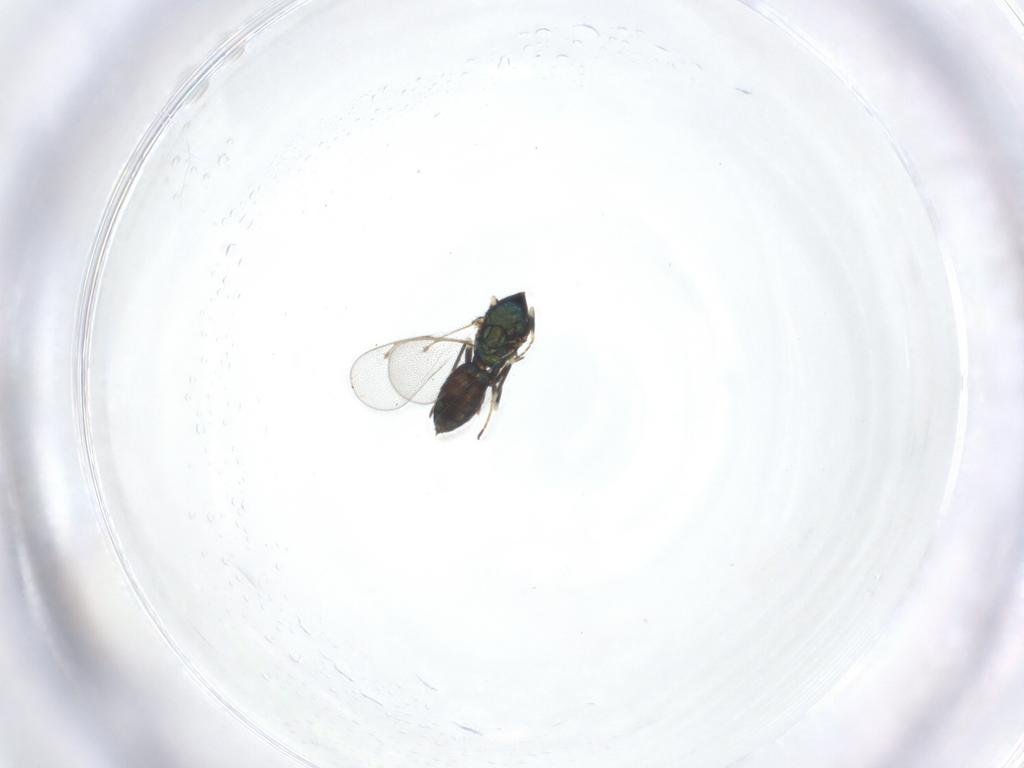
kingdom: Animalia
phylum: Arthropoda
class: Insecta
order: Hymenoptera
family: Eulophidae
